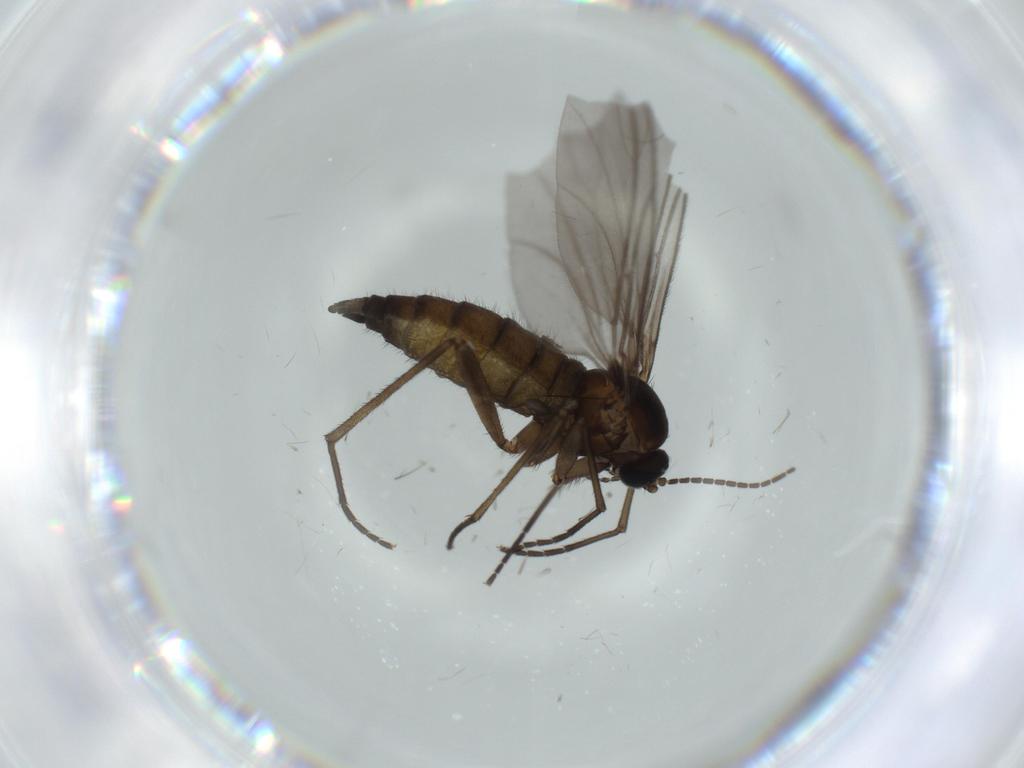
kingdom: Animalia
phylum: Arthropoda
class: Insecta
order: Diptera
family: Sciaridae
